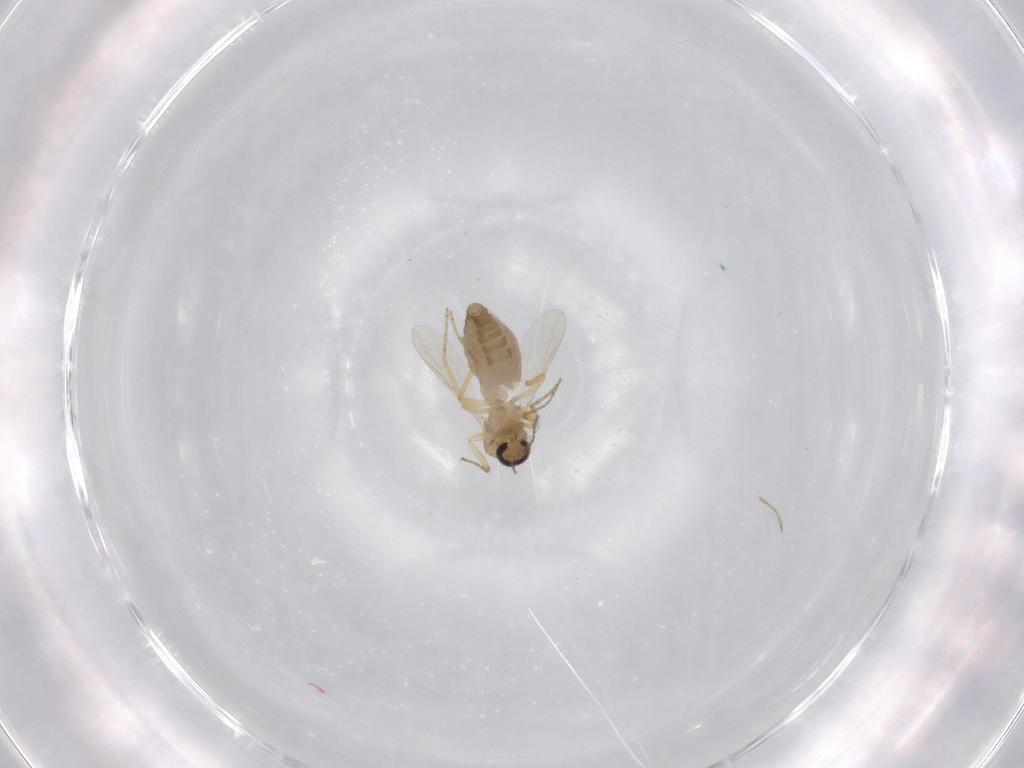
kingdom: Animalia
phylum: Arthropoda
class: Insecta
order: Diptera
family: Ceratopogonidae
